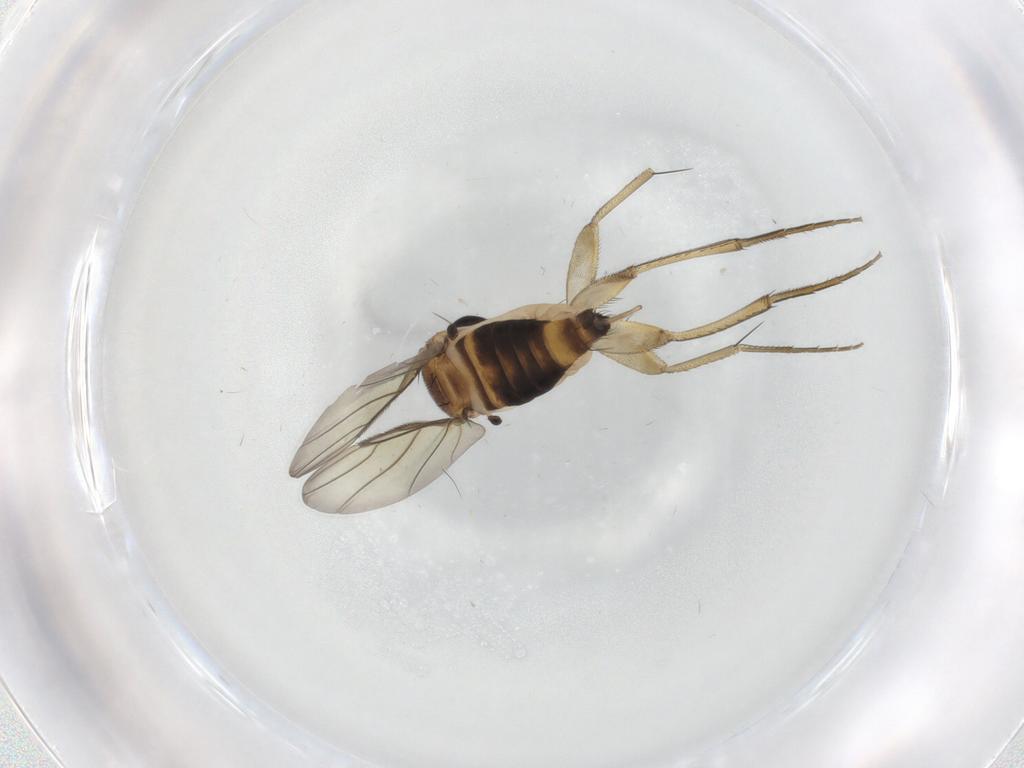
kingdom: Animalia
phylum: Arthropoda
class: Insecta
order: Diptera
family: Phoridae
